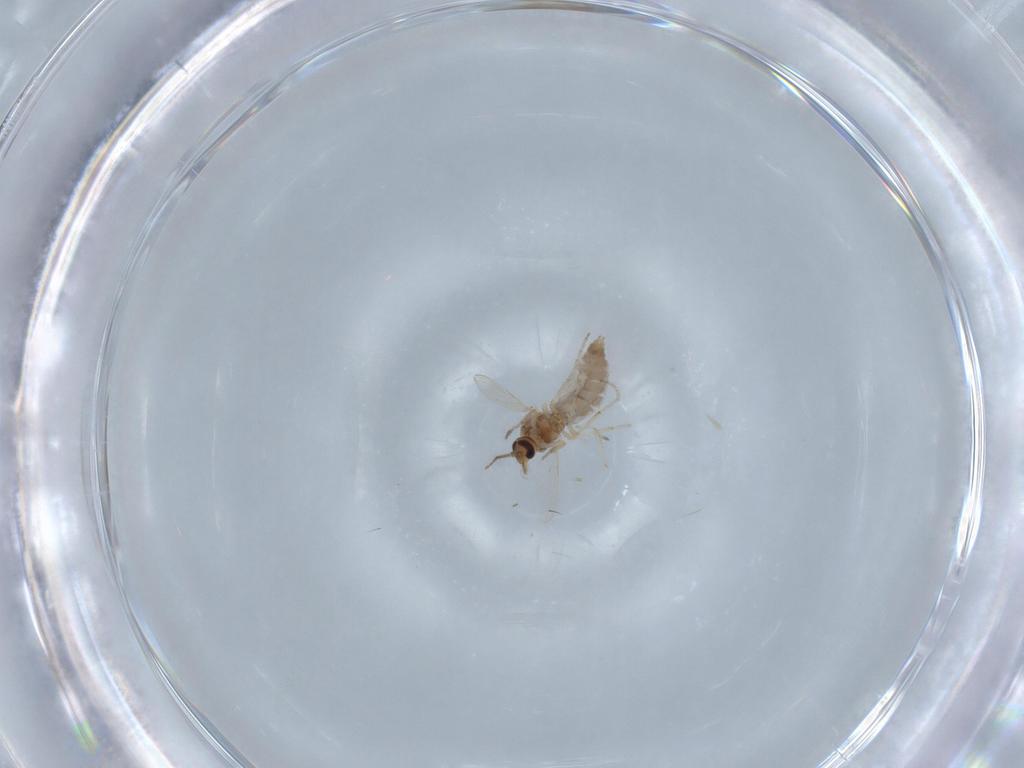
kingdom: Animalia
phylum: Arthropoda
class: Insecta
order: Diptera
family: Ceratopogonidae
